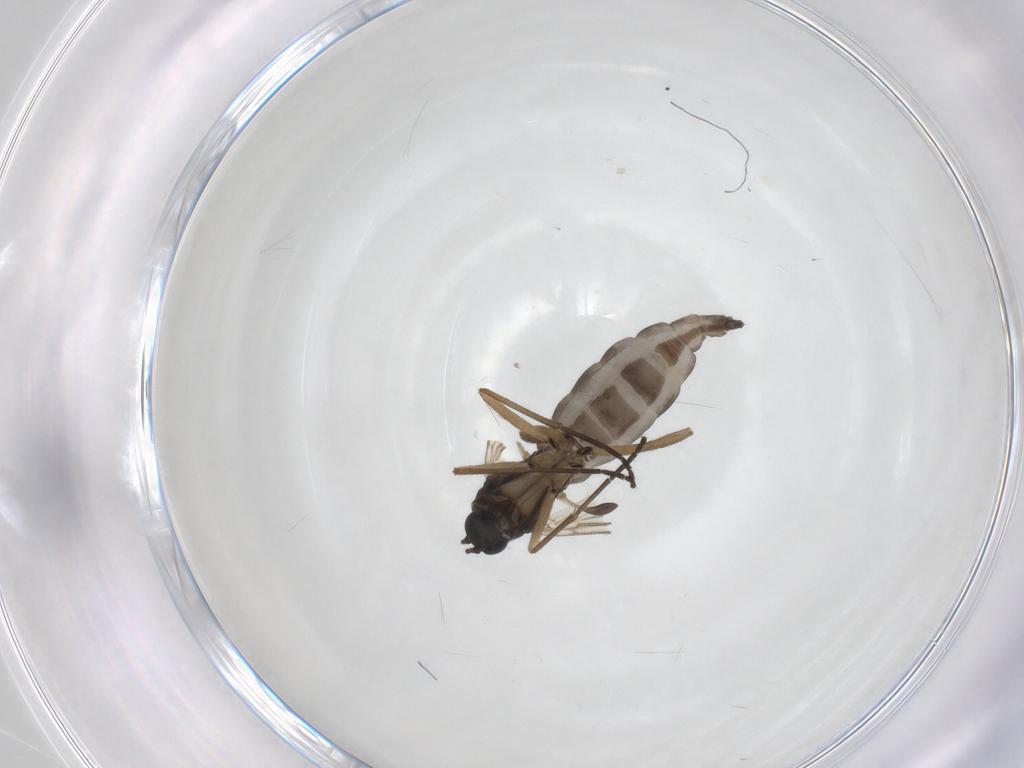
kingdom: Animalia
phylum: Arthropoda
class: Insecta
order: Diptera
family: Sciaridae
